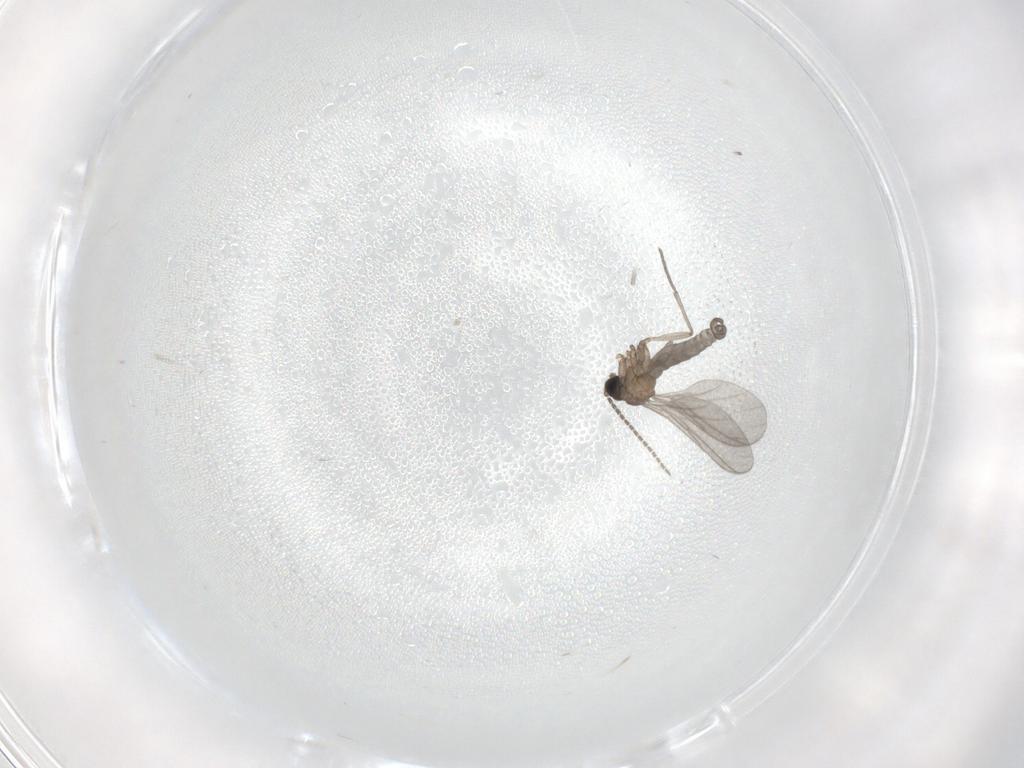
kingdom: Animalia
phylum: Arthropoda
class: Insecta
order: Diptera
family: Sciaridae
